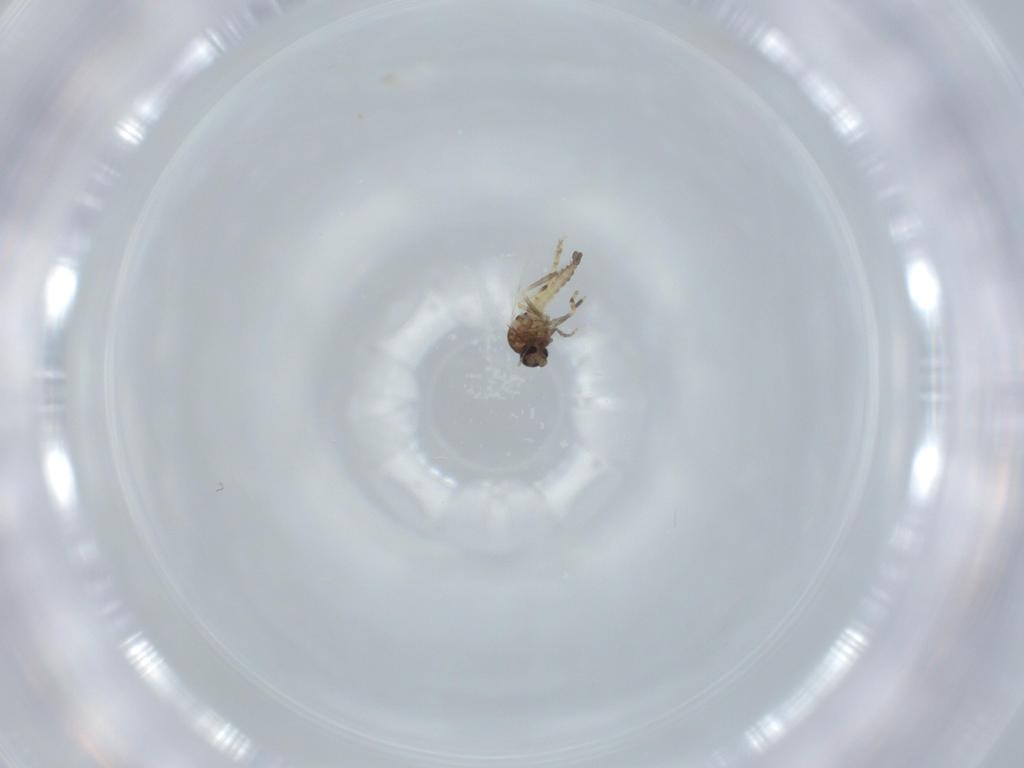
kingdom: Animalia
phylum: Arthropoda
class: Insecta
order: Diptera
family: Ceratopogonidae
